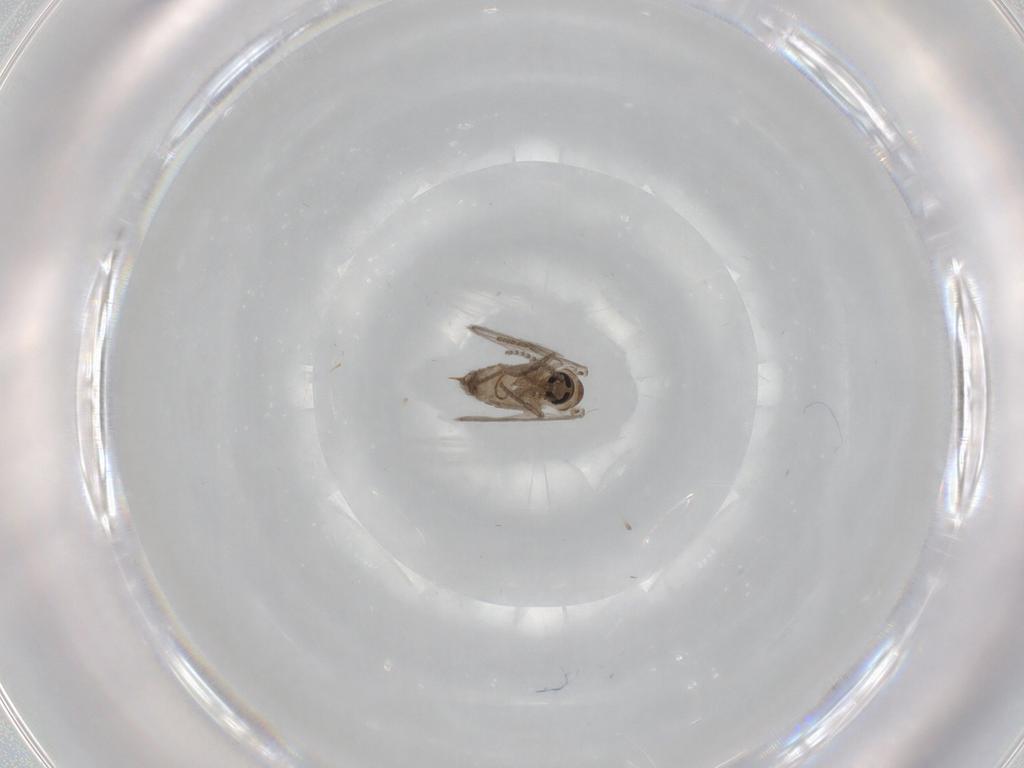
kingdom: Animalia
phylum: Arthropoda
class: Insecta
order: Diptera
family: Psychodidae
